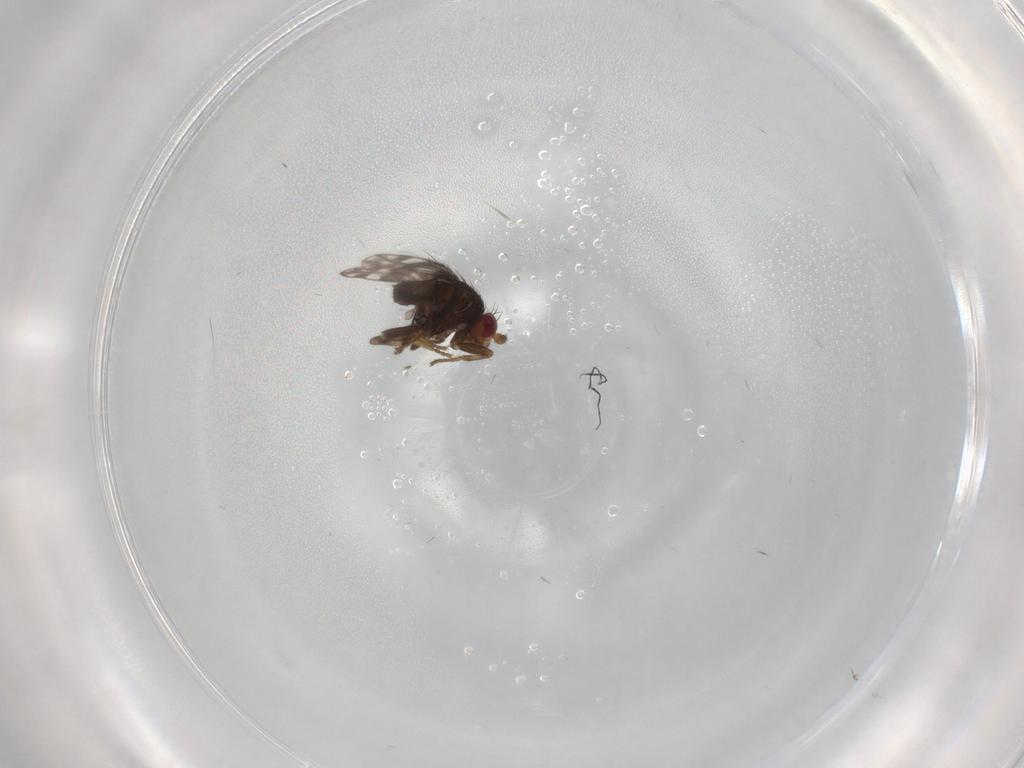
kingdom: Animalia
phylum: Arthropoda
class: Insecta
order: Diptera
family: Sphaeroceridae
